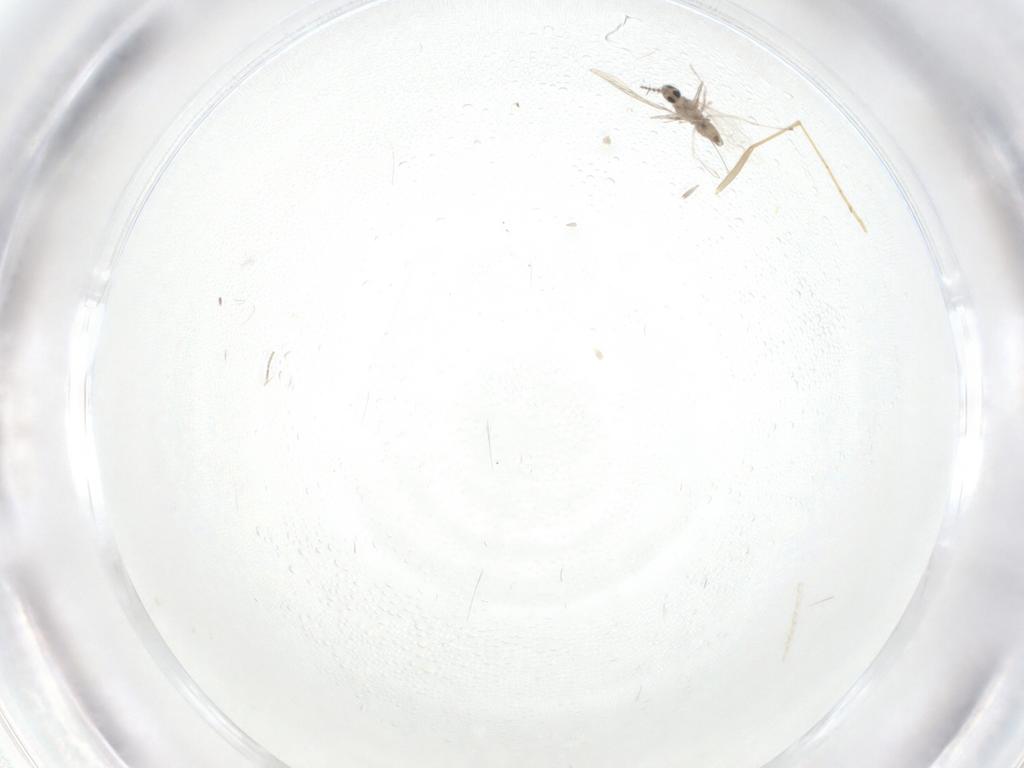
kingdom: Animalia
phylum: Arthropoda
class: Insecta
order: Diptera
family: Cecidomyiidae
